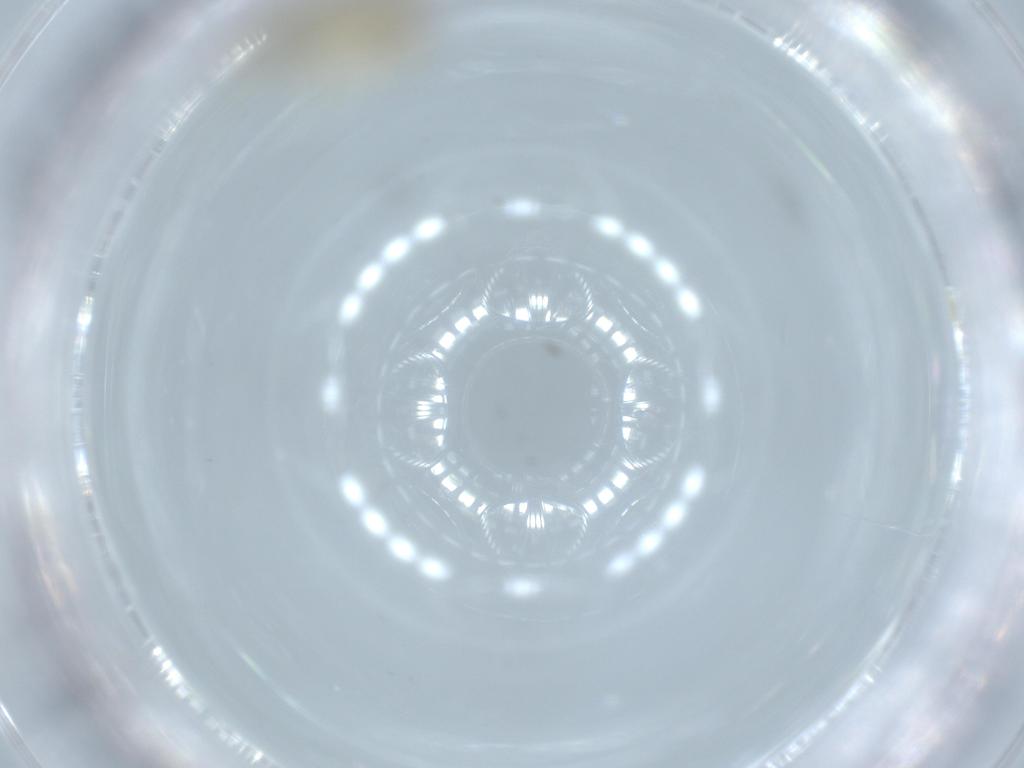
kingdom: Animalia
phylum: Arthropoda
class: Insecta
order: Psocodea
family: Caeciliusidae
